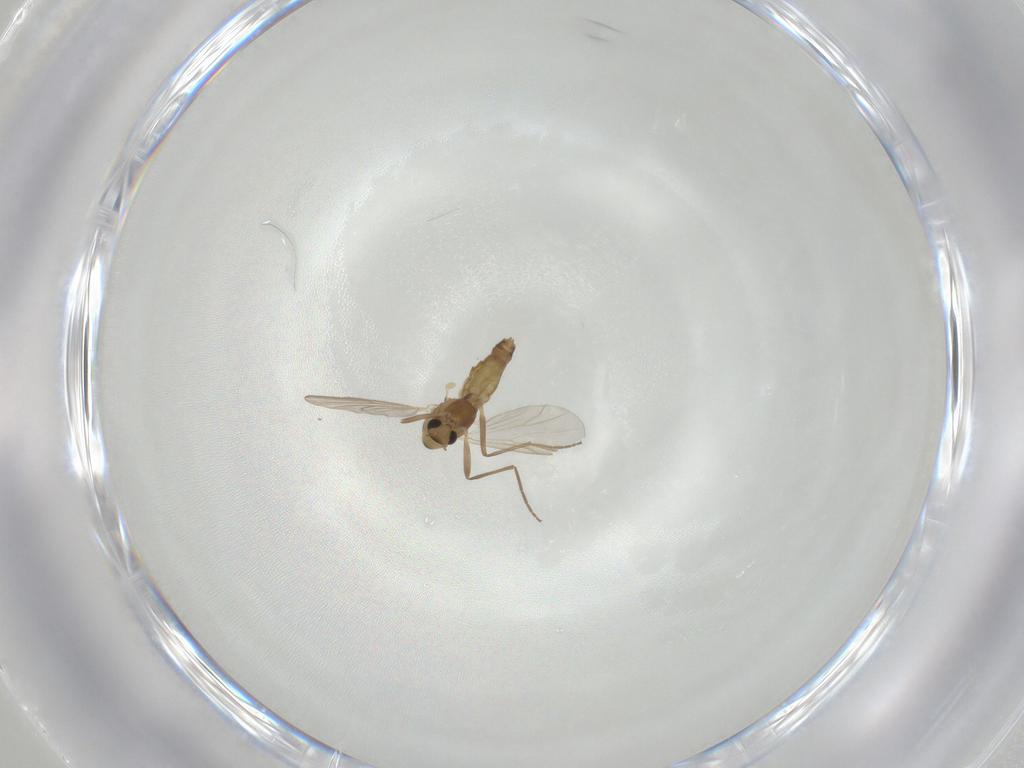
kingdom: Animalia
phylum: Arthropoda
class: Insecta
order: Diptera
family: Chironomidae
